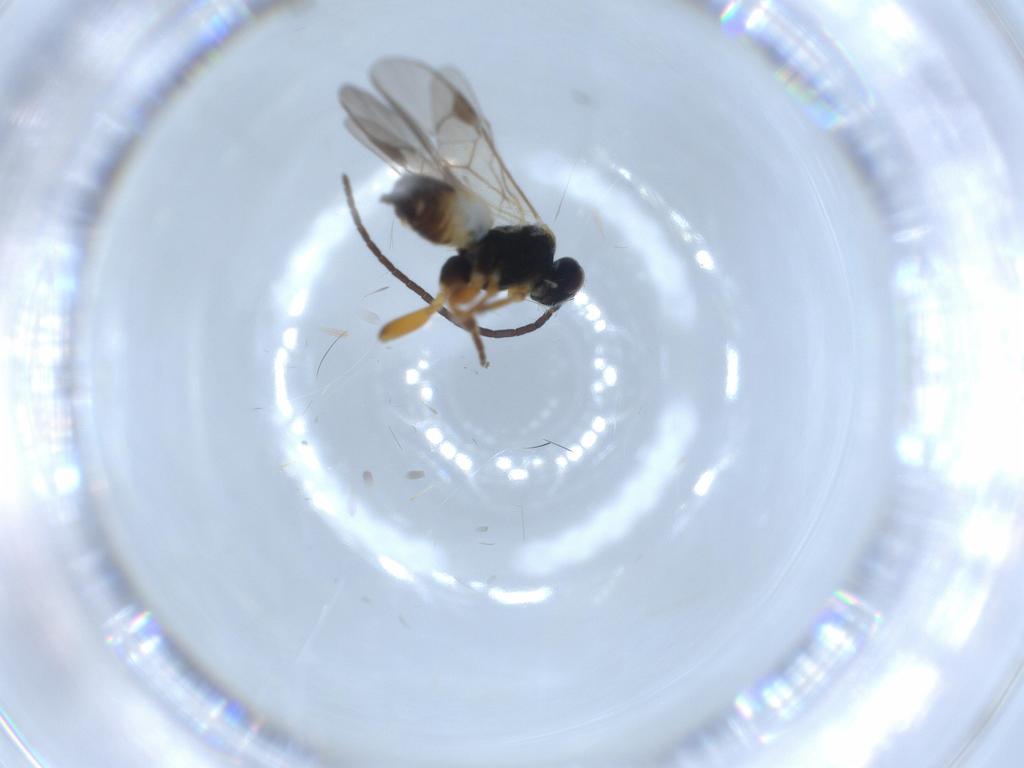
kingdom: Animalia
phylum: Arthropoda
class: Insecta
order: Hymenoptera
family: Braconidae
